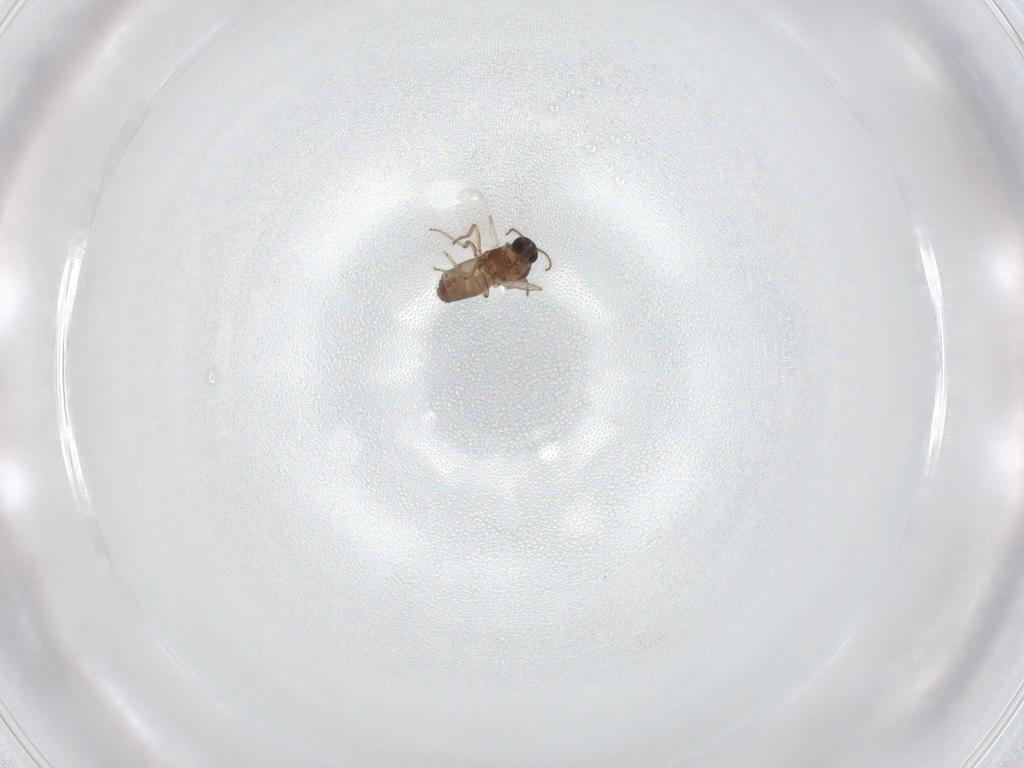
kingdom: Animalia
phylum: Arthropoda
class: Insecta
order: Diptera
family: Ceratopogonidae
